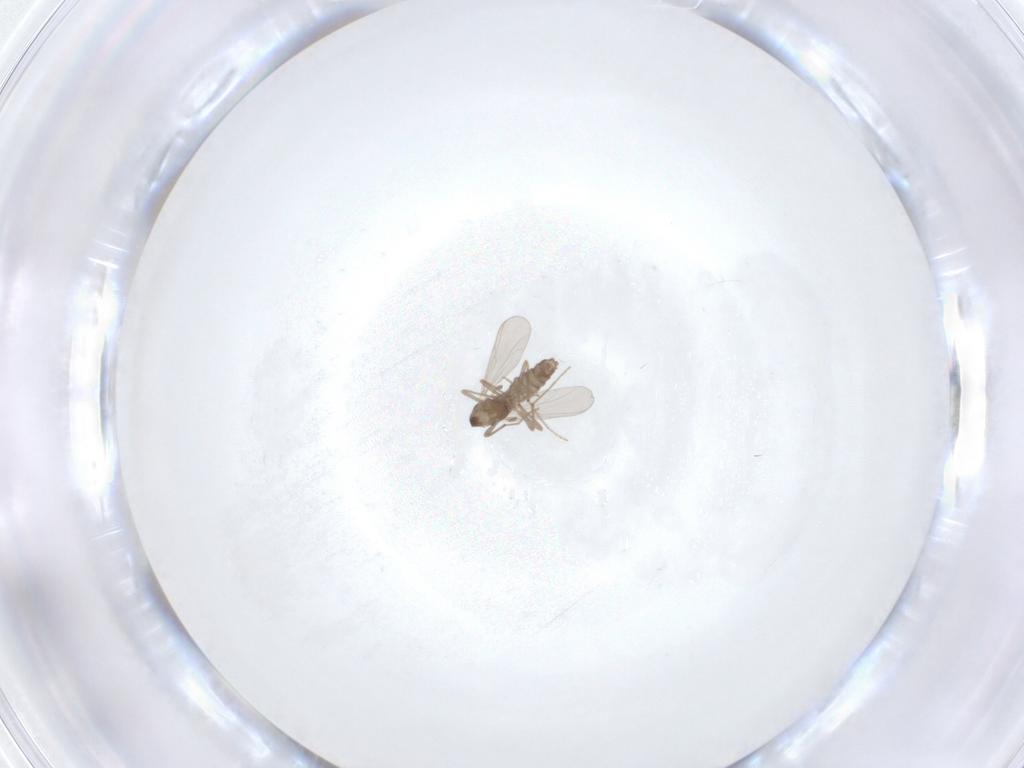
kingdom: Animalia
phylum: Arthropoda
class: Insecta
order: Diptera
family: Chironomidae
